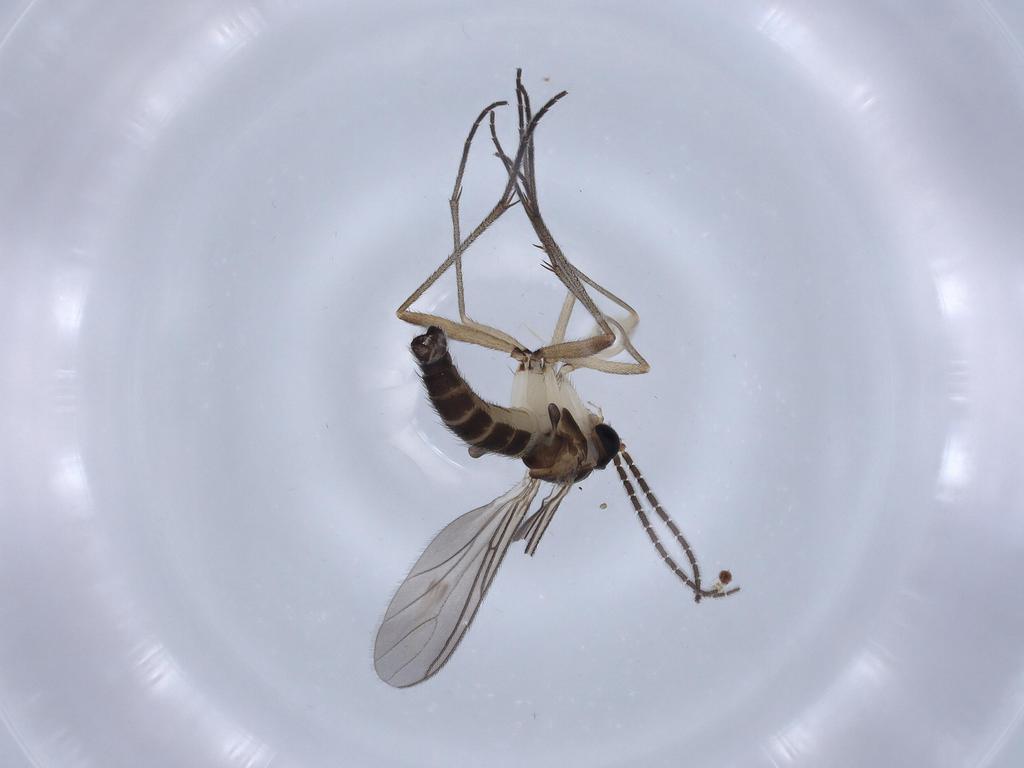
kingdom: Animalia
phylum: Arthropoda
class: Insecta
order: Diptera
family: Sciaridae
